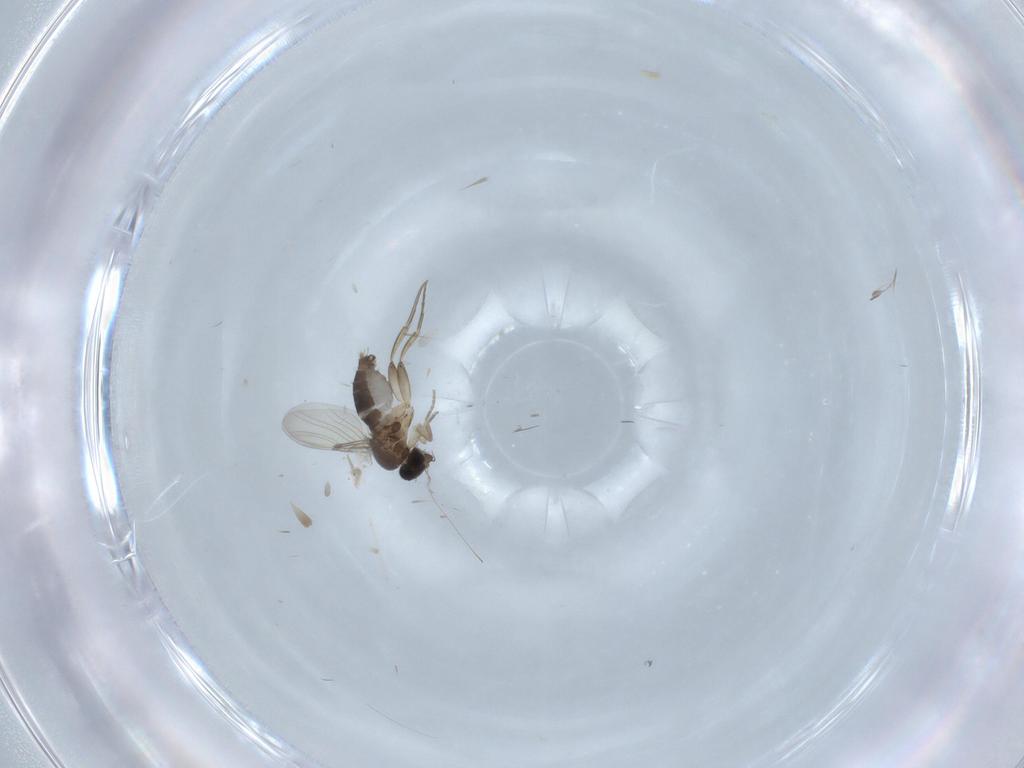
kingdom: Animalia
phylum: Arthropoda
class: Insecta
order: Diptera
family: Phoridae
